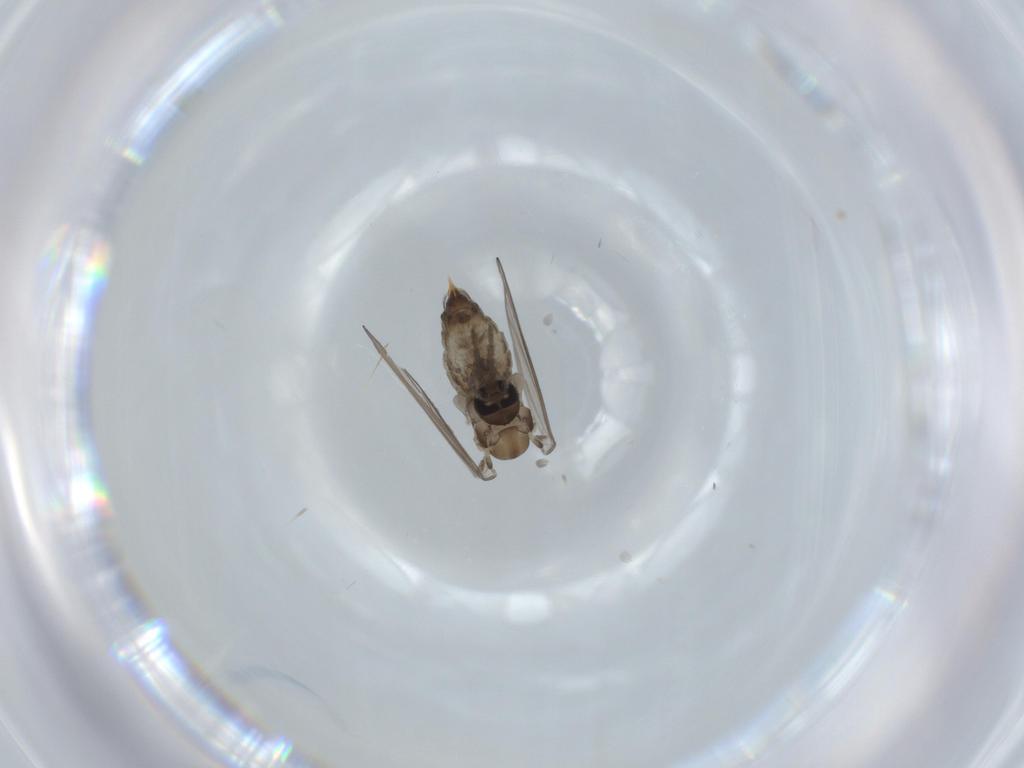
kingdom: Animalia
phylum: Arthropoda
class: Insecta
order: Diptera
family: Psychodidae
